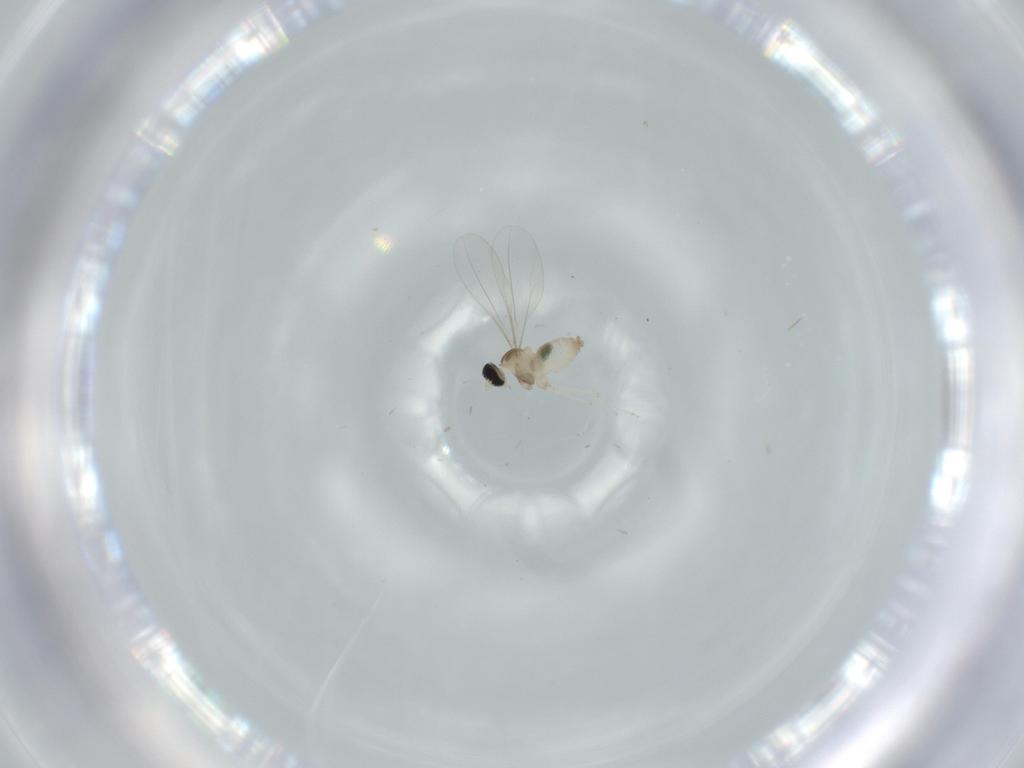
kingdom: Animalia
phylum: Arthropoda
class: Insecta
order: Diptera
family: Cecidomyiidae
